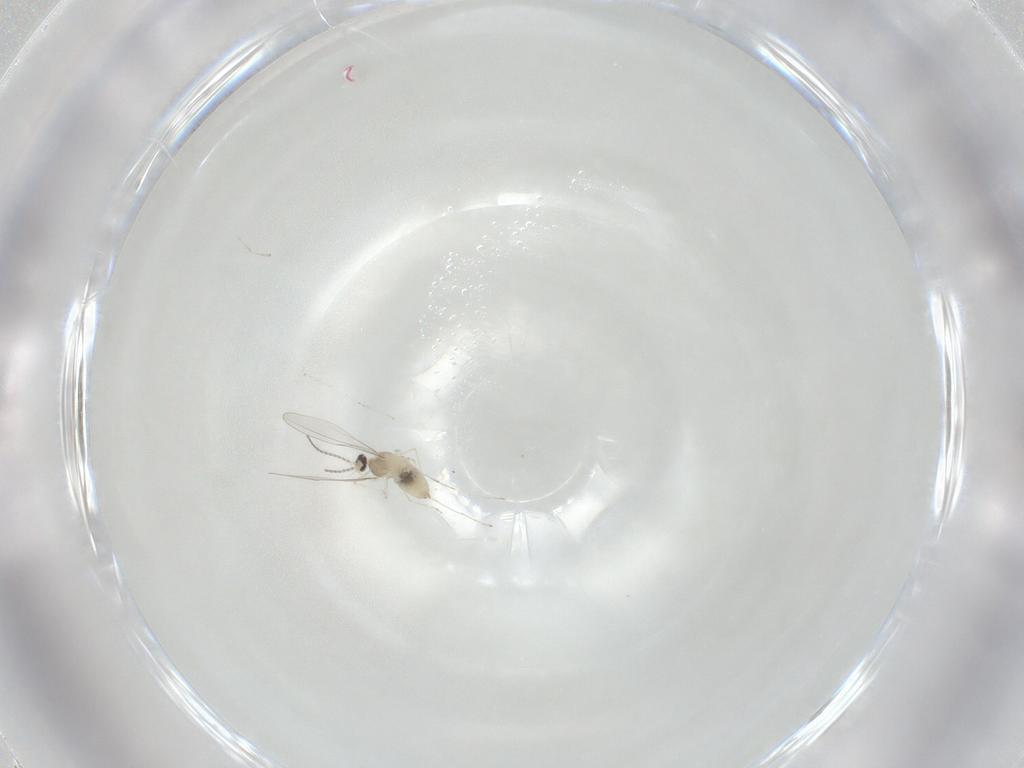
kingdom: Animalia
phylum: Arthropoda
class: Insecta
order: Diptera
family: Cecidomyiidae
